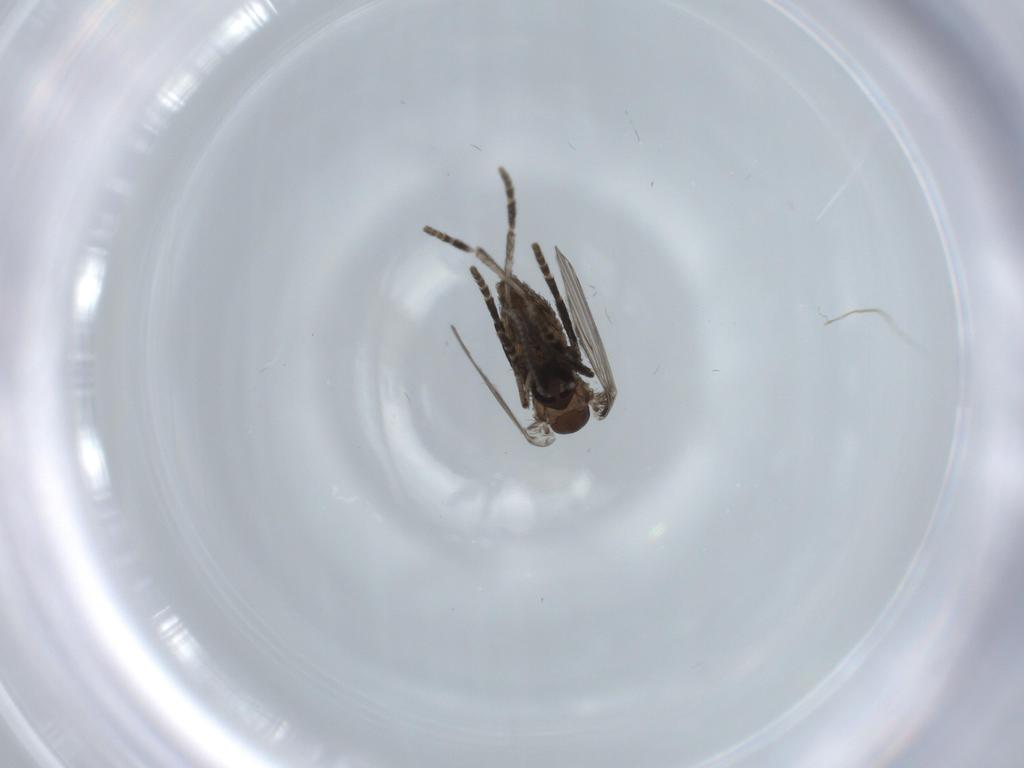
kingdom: Animalia
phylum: Arthropoda
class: Insecta
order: Diptera
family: Psychodidae
